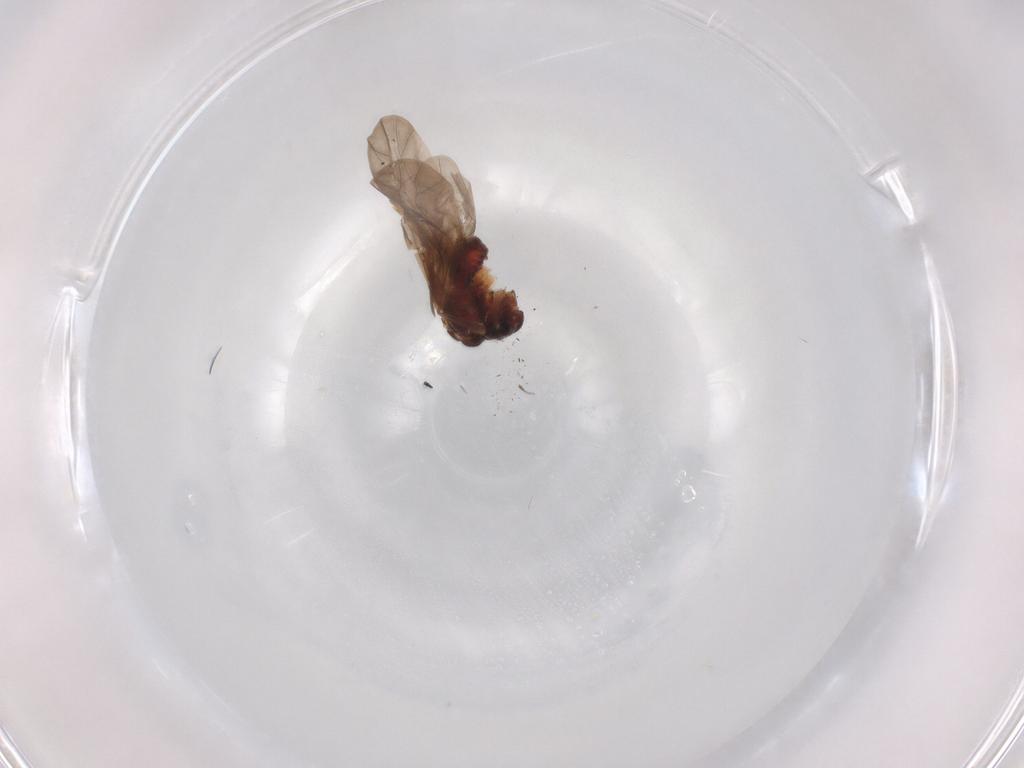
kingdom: Animalia
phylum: Arthropoda
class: Insecta
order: Psocodea
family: Caeciliusidae
